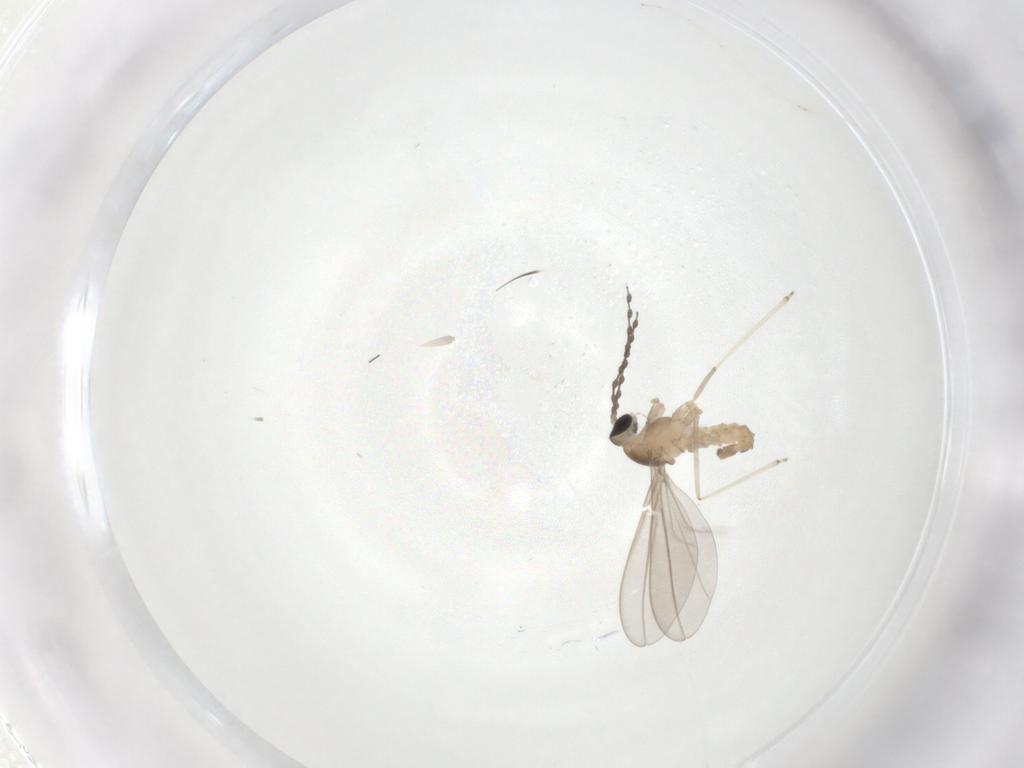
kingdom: Animalia
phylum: Arthropoda
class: Insecta
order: Diptera
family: Cecidomyiidae
